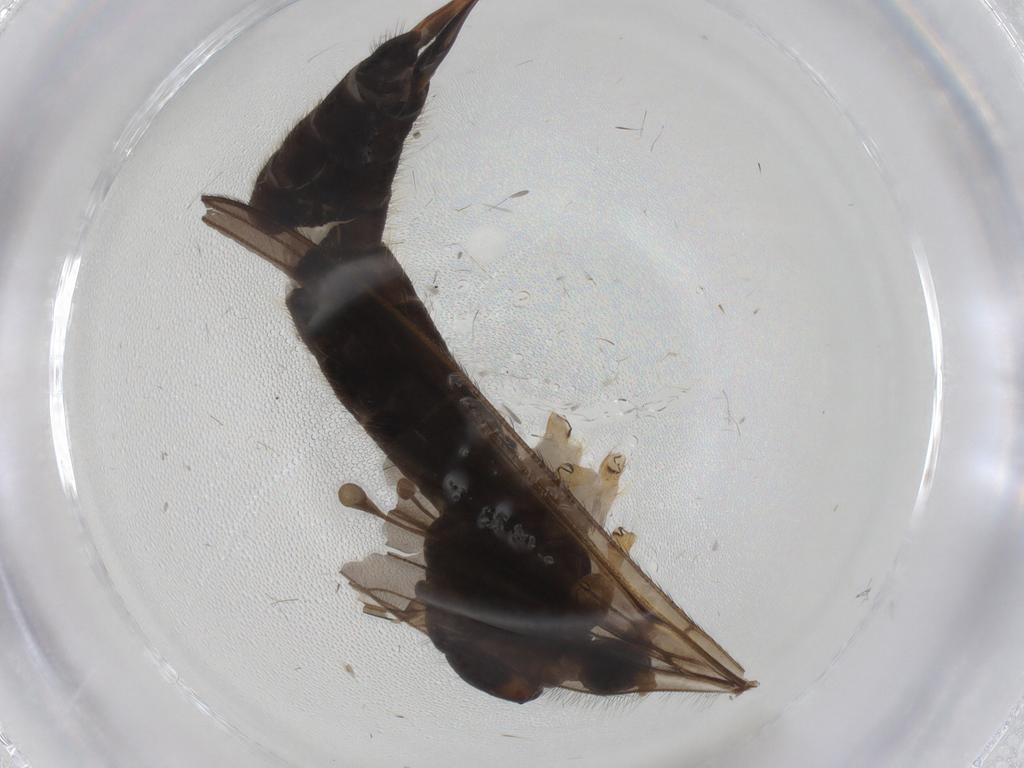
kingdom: Animalia
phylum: Arthropoda
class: Insecta
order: Diptera
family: Limoniidae
